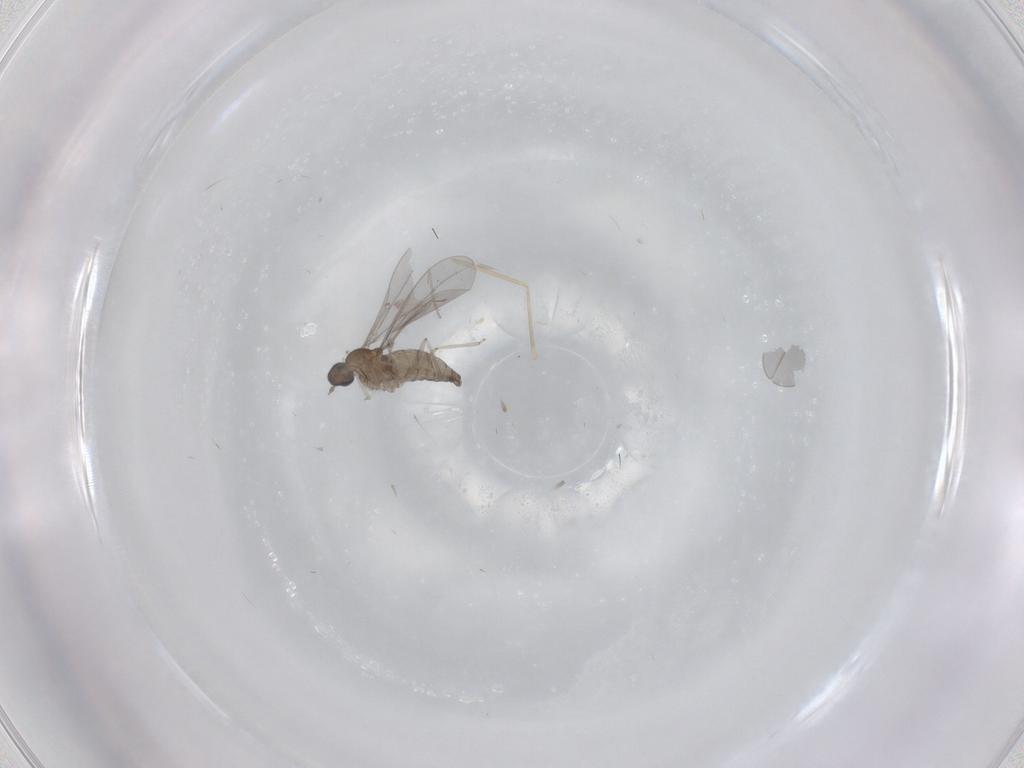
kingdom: Animalia
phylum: Arthropoda
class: Insecta
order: Diptera
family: Cecidomyiidae
